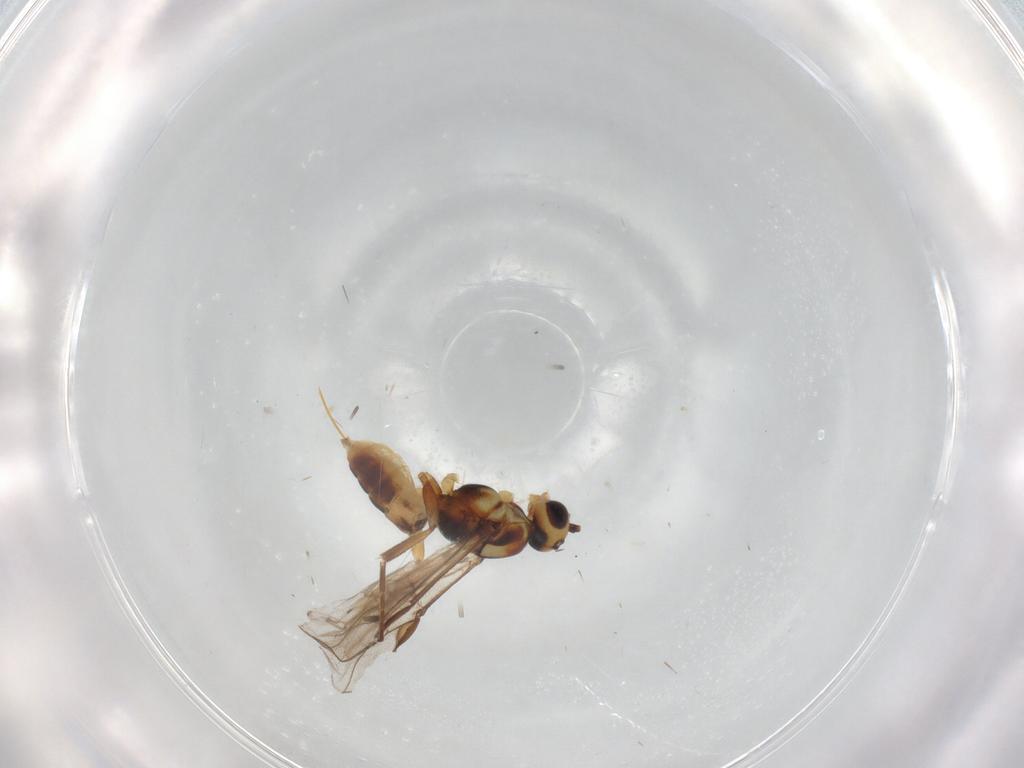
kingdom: Animalia
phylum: Arthropoda
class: Insecta
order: Hymenoptera
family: Braconidae
